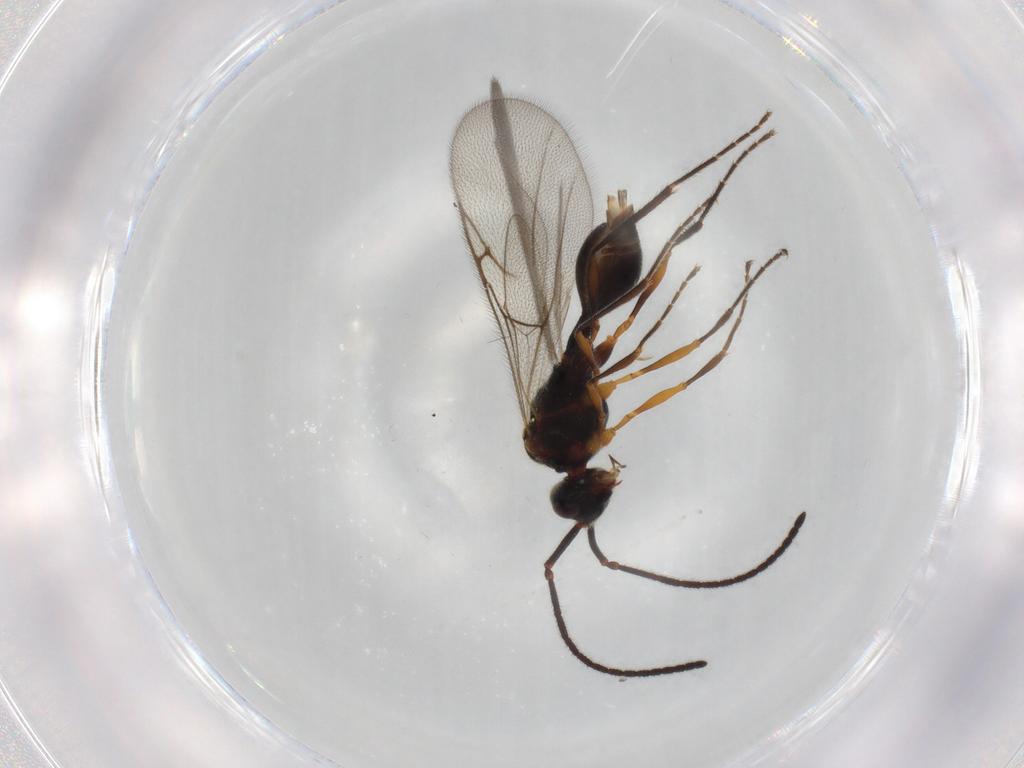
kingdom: Animalia
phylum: Arthropoda
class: Insecta
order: Hymenoptera
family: Diapriidae
